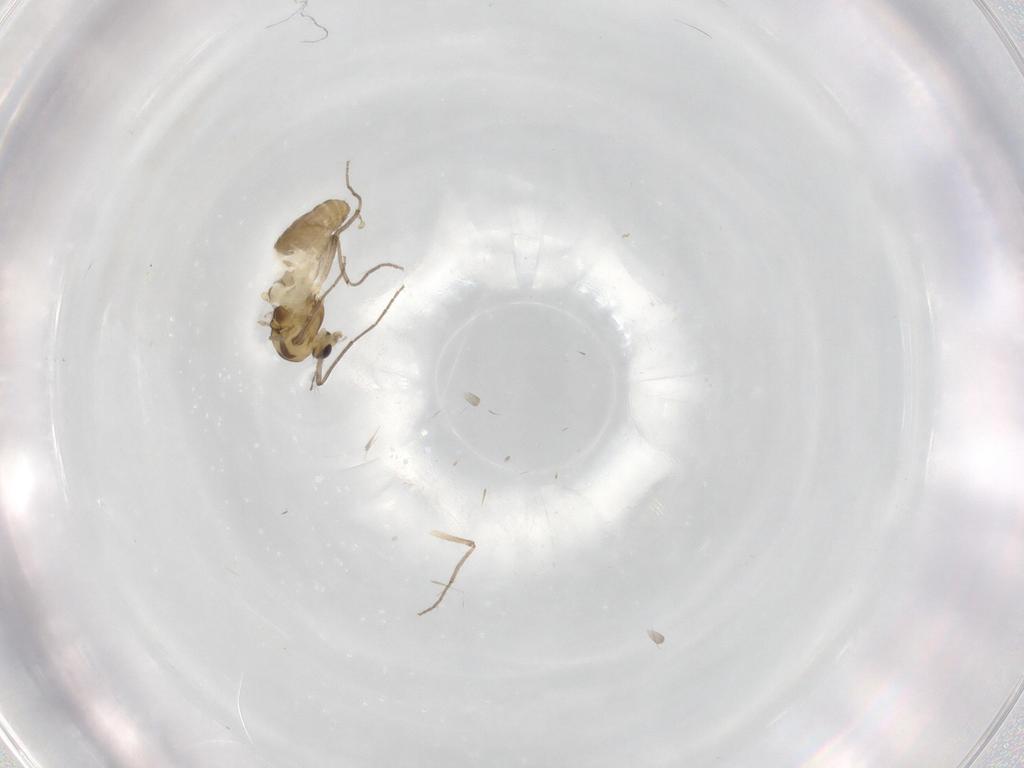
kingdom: Animalia
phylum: Arthropoda
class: Insecta
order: Diptera
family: Chironomidae
